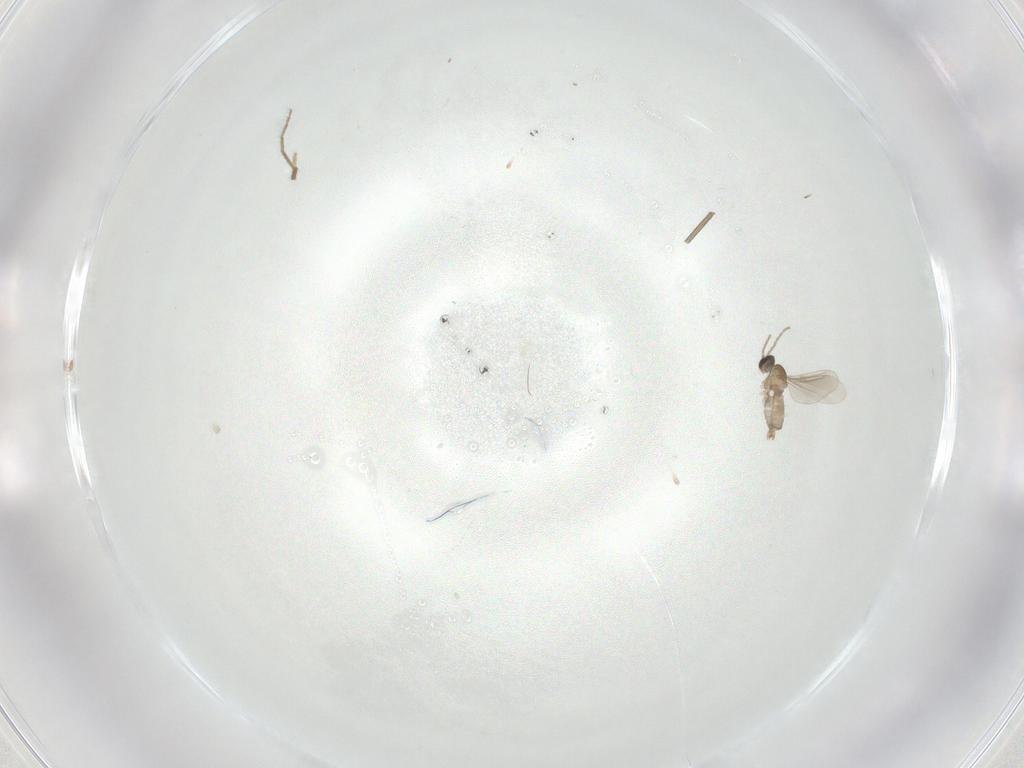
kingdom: Animalia
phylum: Arthropoda
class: Insecta
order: Diptera
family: Cecidomyiidae
